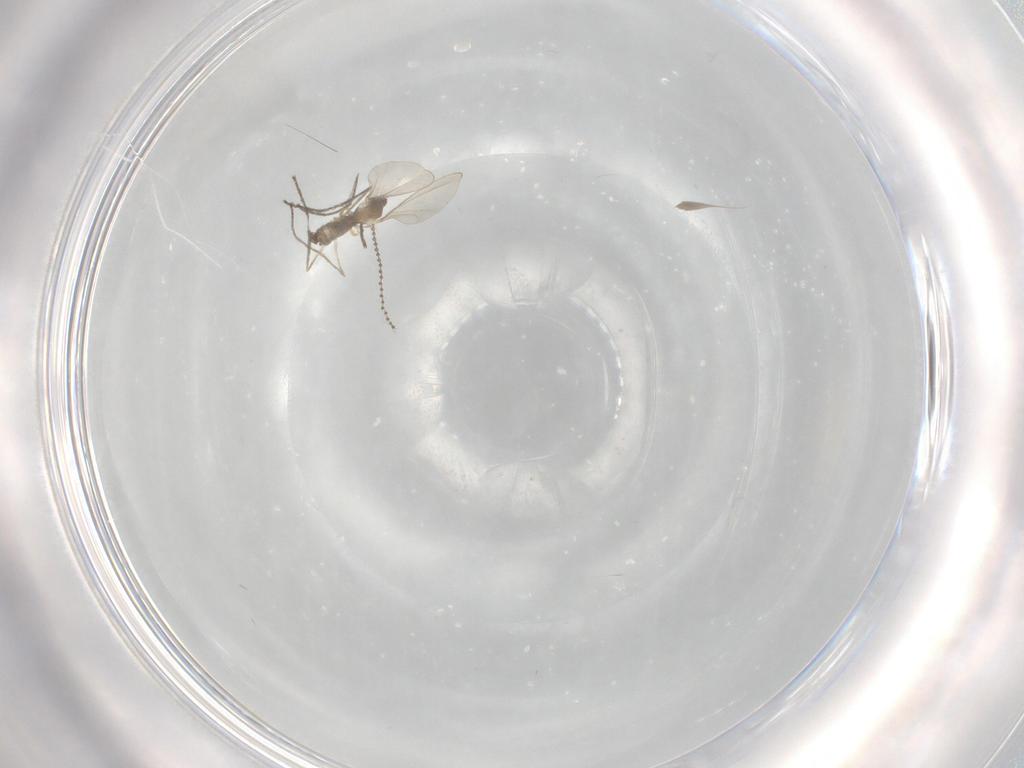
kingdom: Animalia
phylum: Arthropoda
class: Insecta
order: Diptera
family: Cecidomyiidae
